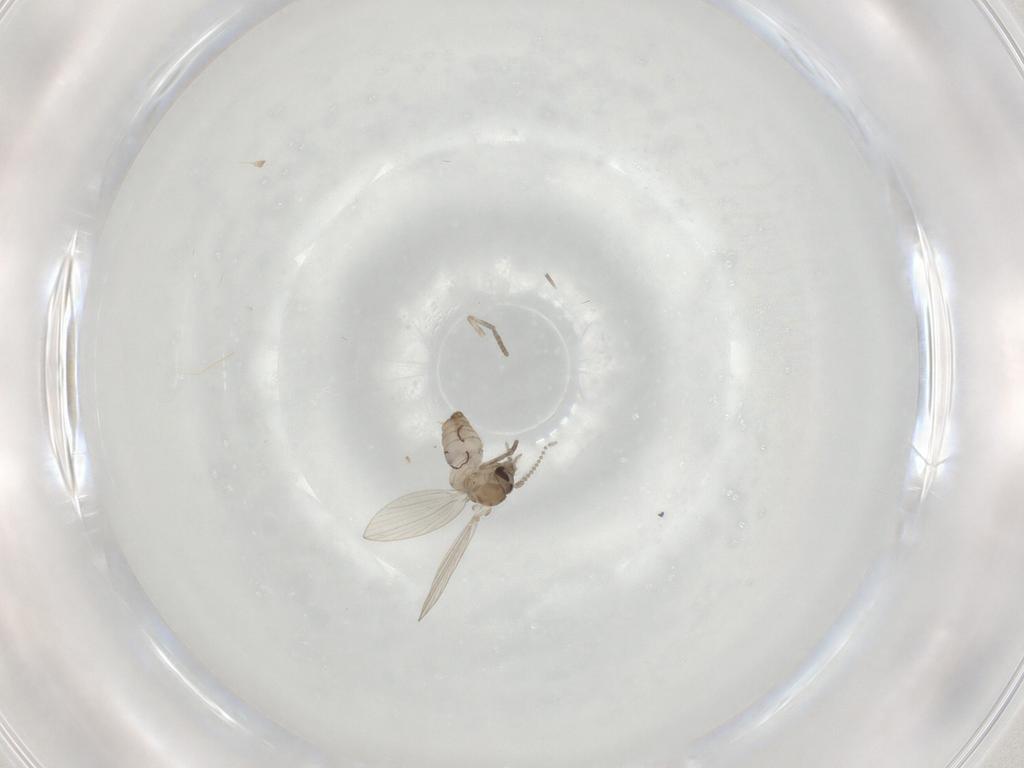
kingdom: Animalia
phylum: Arthropoda
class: Insecta
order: Diptera
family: Psychodidae
